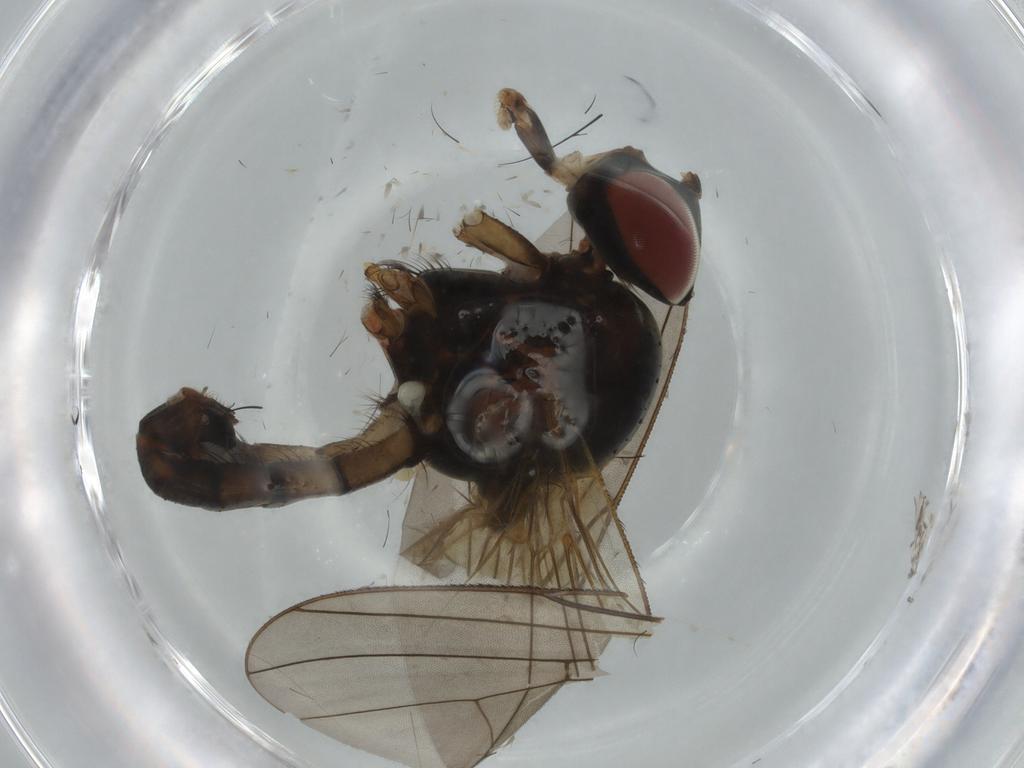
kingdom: Animalia
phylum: Arthropoda
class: Insecta
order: Diptera
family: Anthomyiidae
